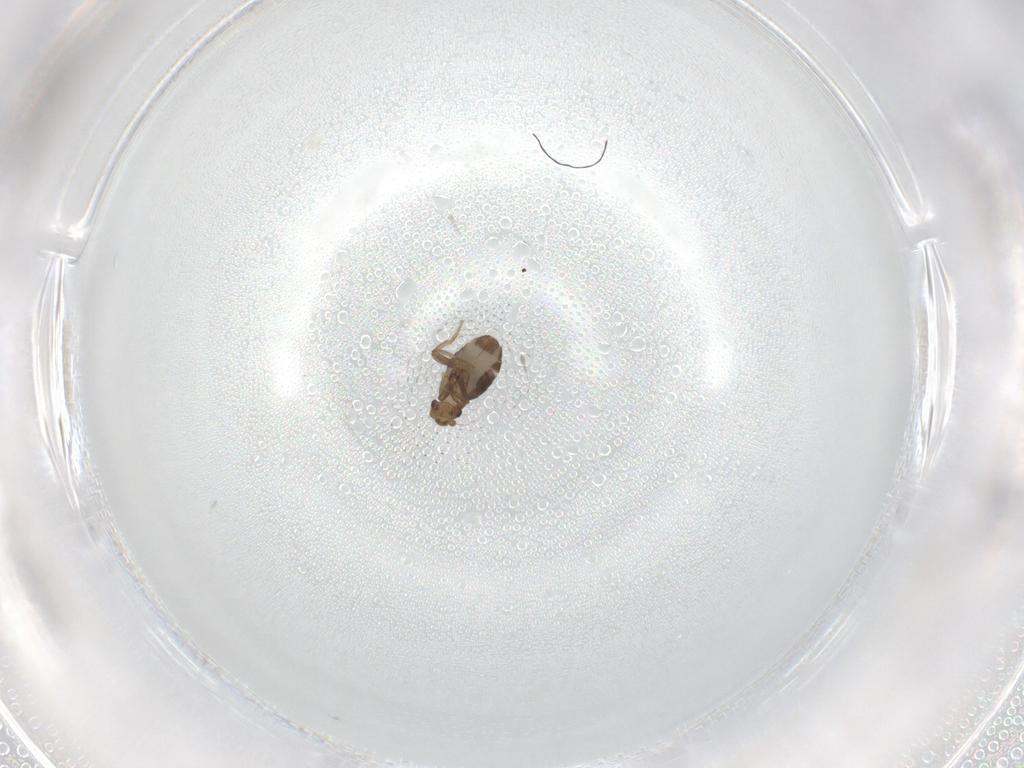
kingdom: Animalia
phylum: Arthropoda
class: Insecta
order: Diptera
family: Psychodidae
